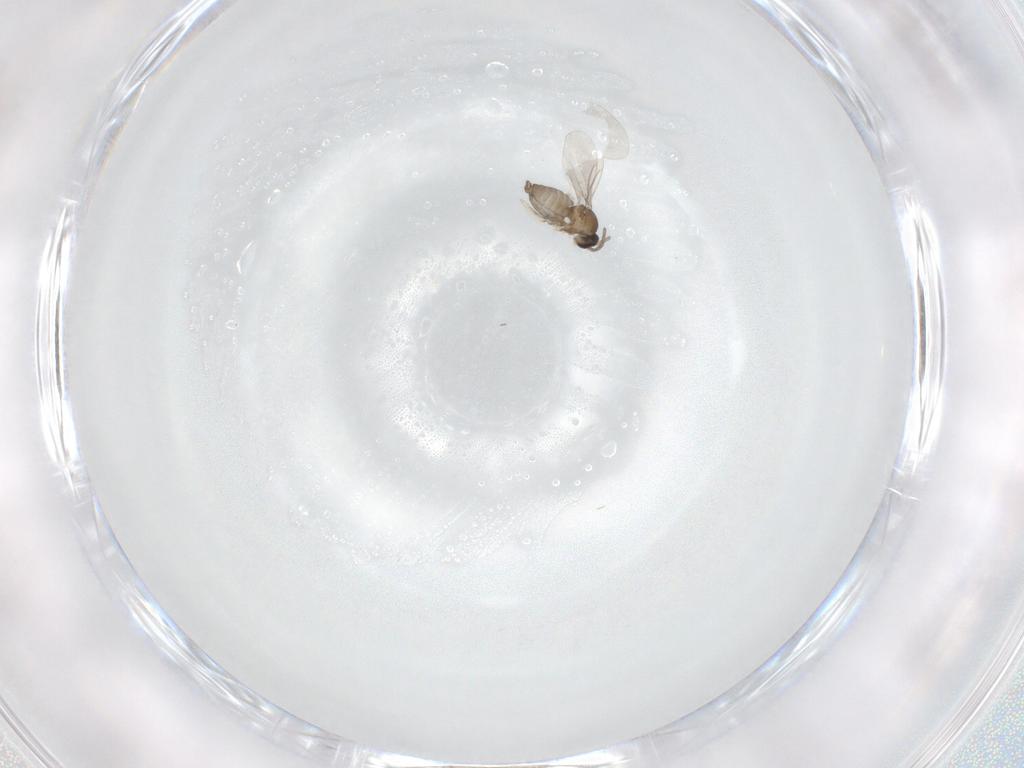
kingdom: Animalia
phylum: Arthropoda
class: Insecta
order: Diptera
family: Cecidomyiidae
